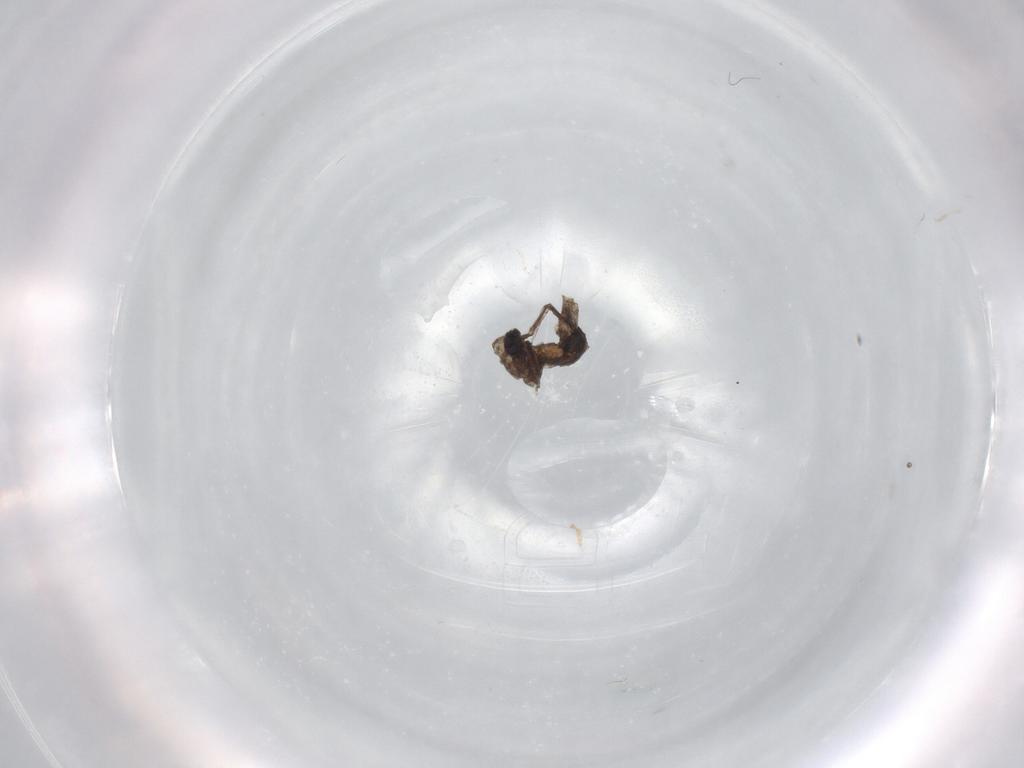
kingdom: Animalia
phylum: Arthropoda
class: Insecta
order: Diptera
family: Cecidomyiidae
